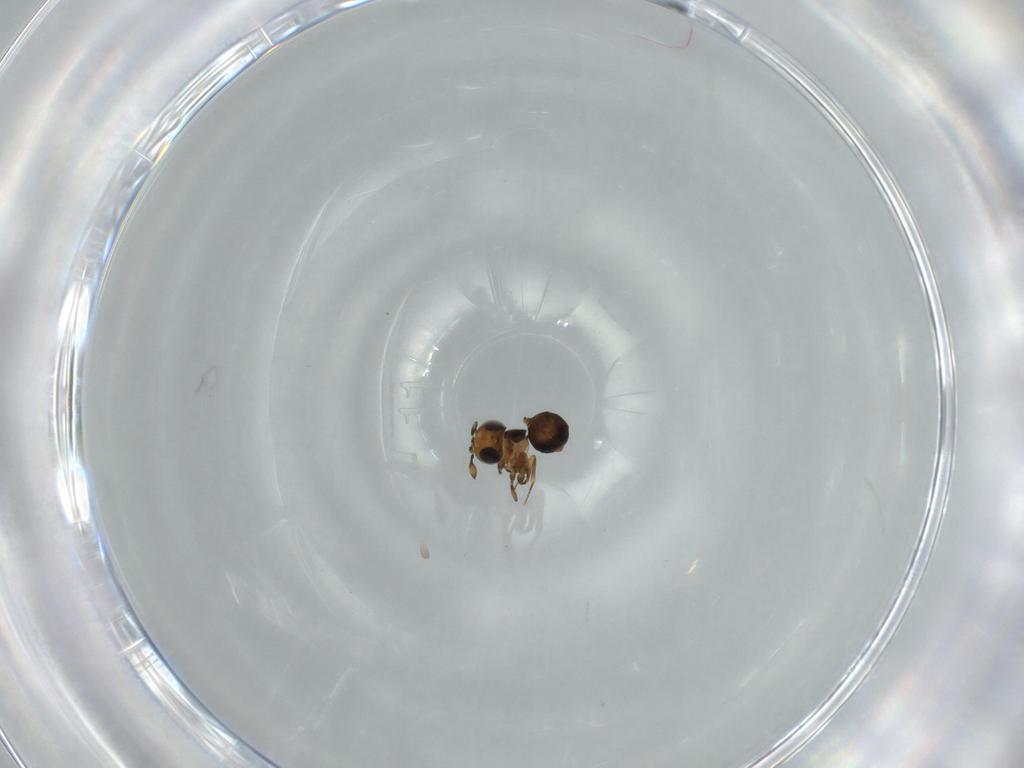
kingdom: Animalia
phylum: Arthropoda
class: Insecta
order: Hymenoptera
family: Scelionidae
